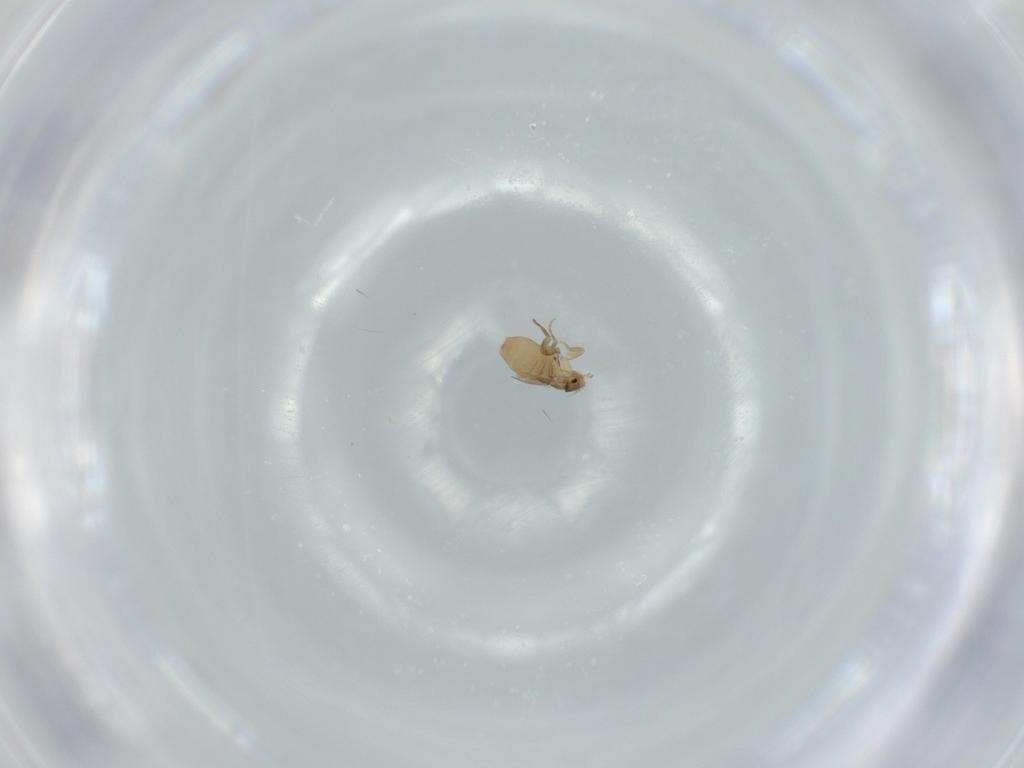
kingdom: Animalia
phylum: Arthropoda
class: Insecta
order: Diptera
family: Phoridae
